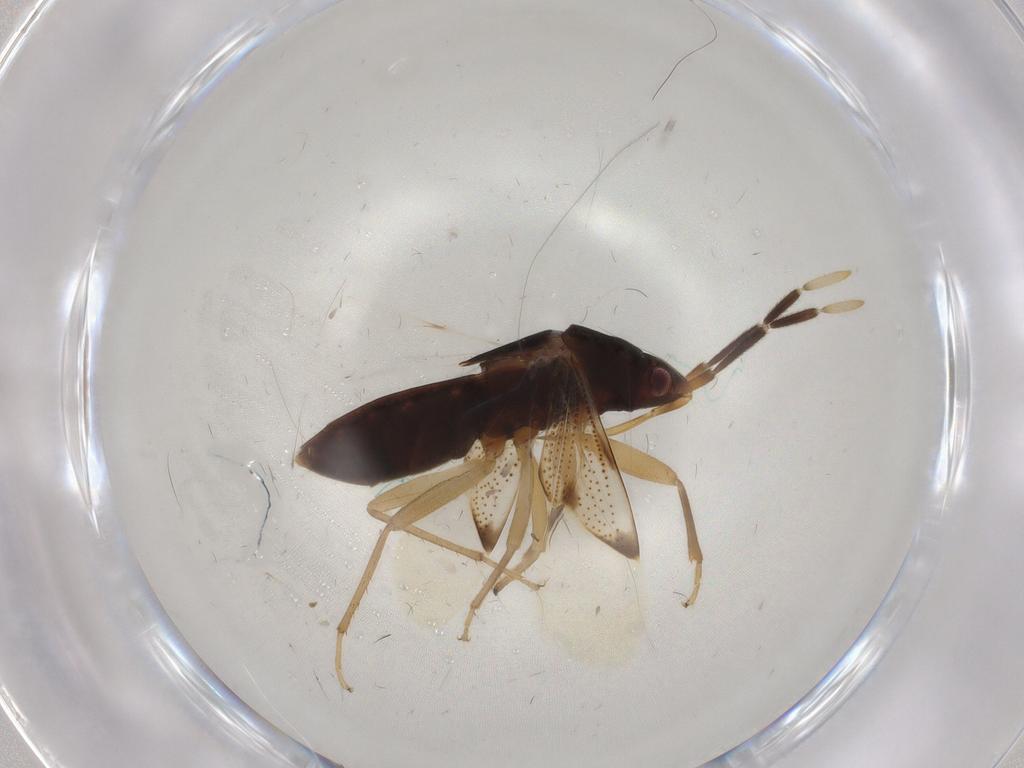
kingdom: Animalia
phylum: Arthropoda
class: Insecta
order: Hemiptera
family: Rhyparochromidae
